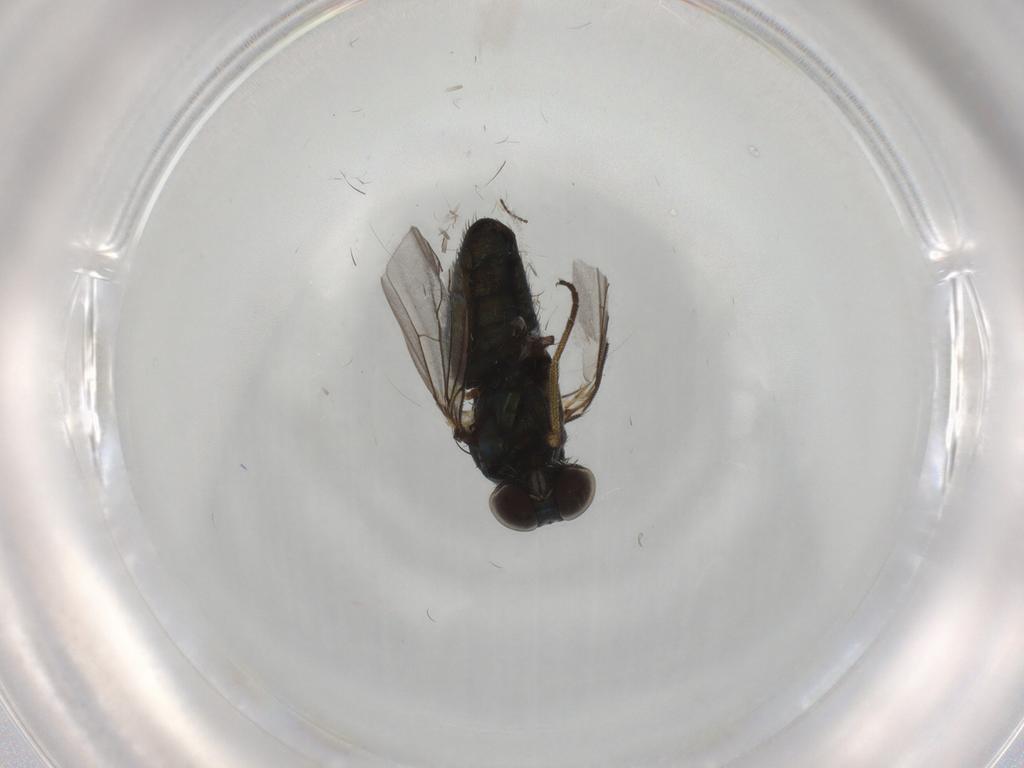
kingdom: Animalia
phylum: Arthropoda
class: Insecta
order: Diptera
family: Dolichopodidae
